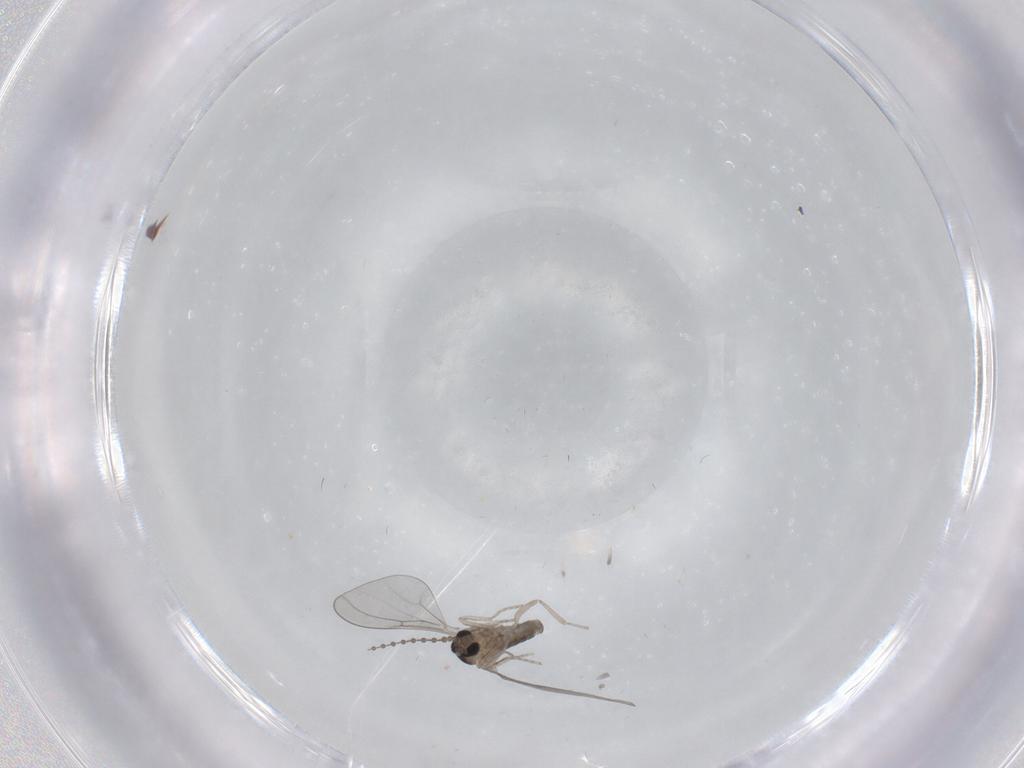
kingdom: Animalia
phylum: Arthropoda
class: Insecta
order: Diptera
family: Cecidomyiidae
